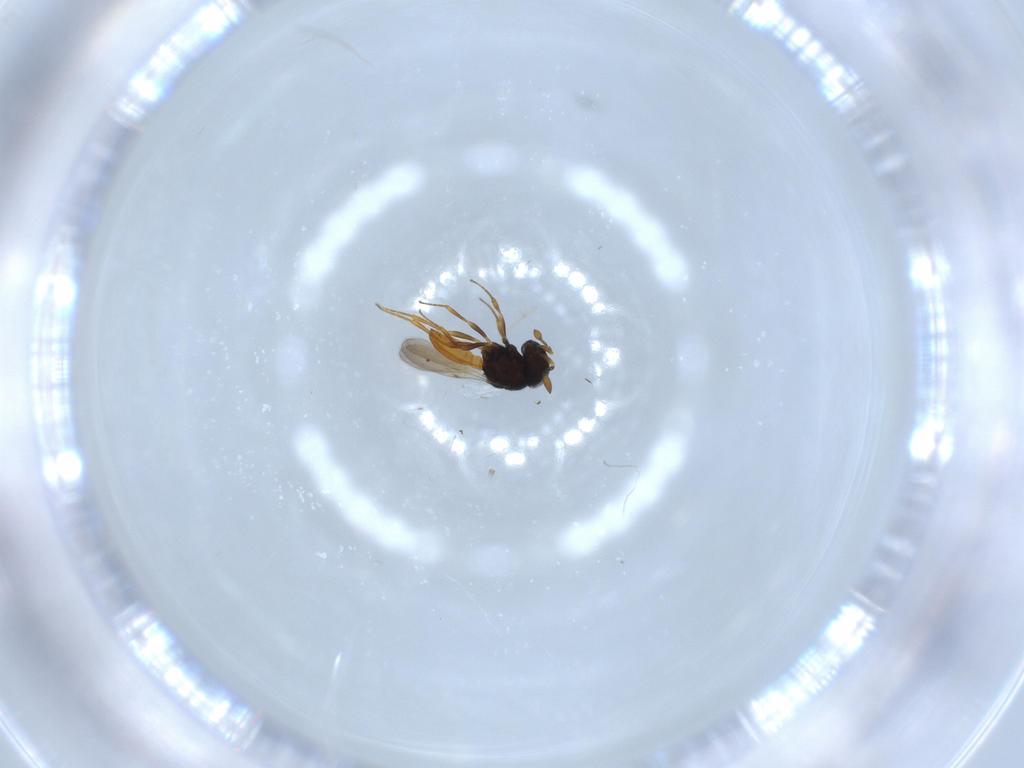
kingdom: Animalia
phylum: Arthropoda
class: Insecta
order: Hymenoptera
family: Scelionidae
